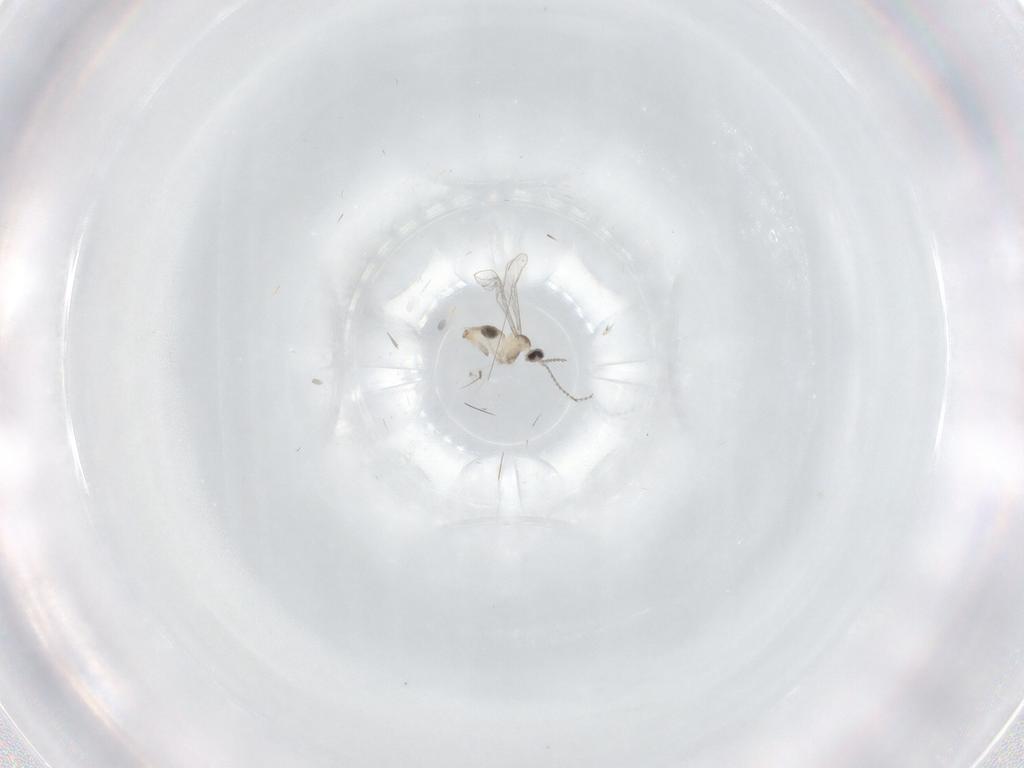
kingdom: Animalia
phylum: Arthropoda
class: Insecta
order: Diptera
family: Cecidomyiidae
